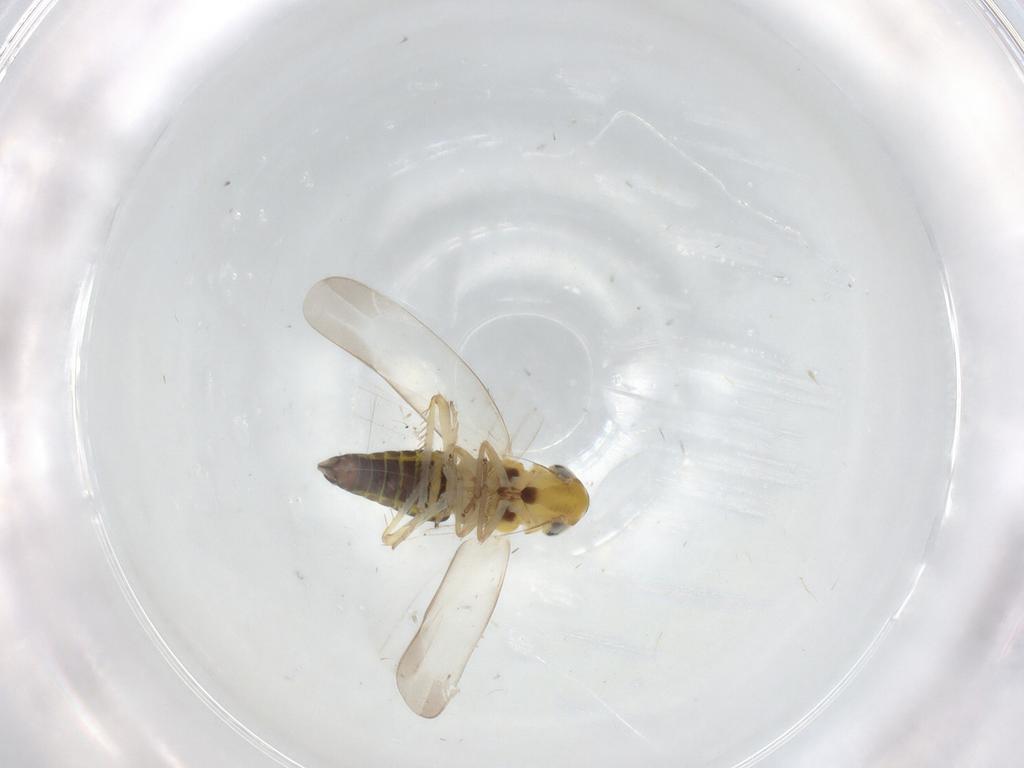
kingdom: Animalia
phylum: Arthropoda
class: Insecta
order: Hemiptera
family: Cicadellidae
